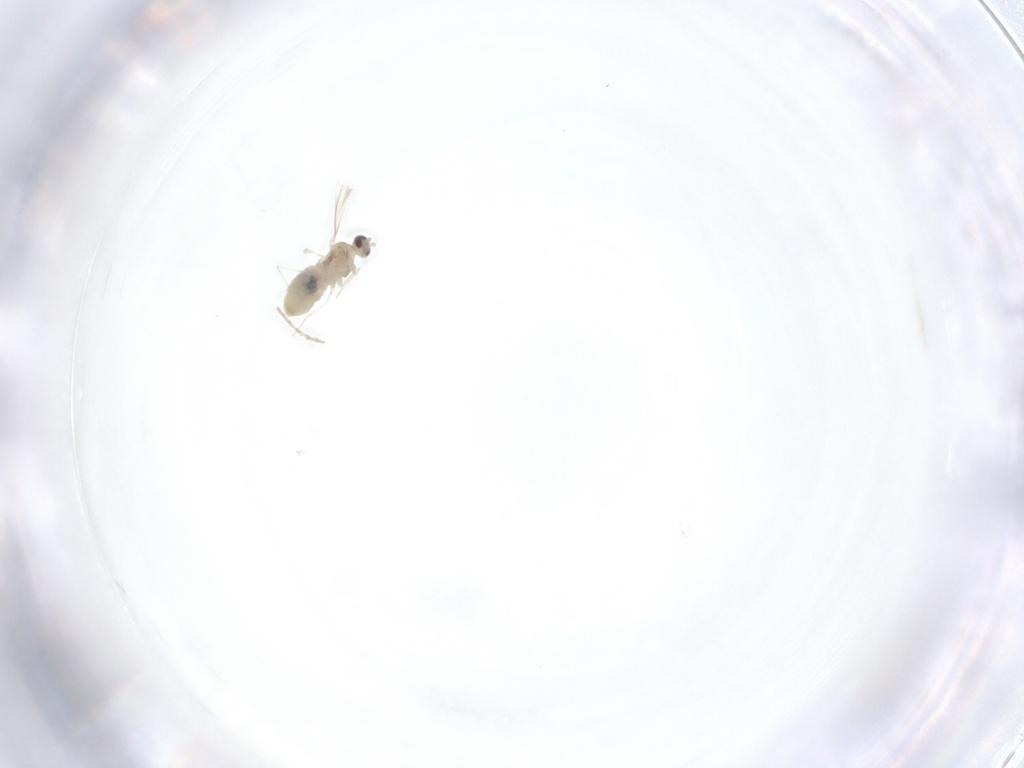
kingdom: Animalia
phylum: Arthropoda
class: Insecta
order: Diptera
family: Cecidomyiidae
